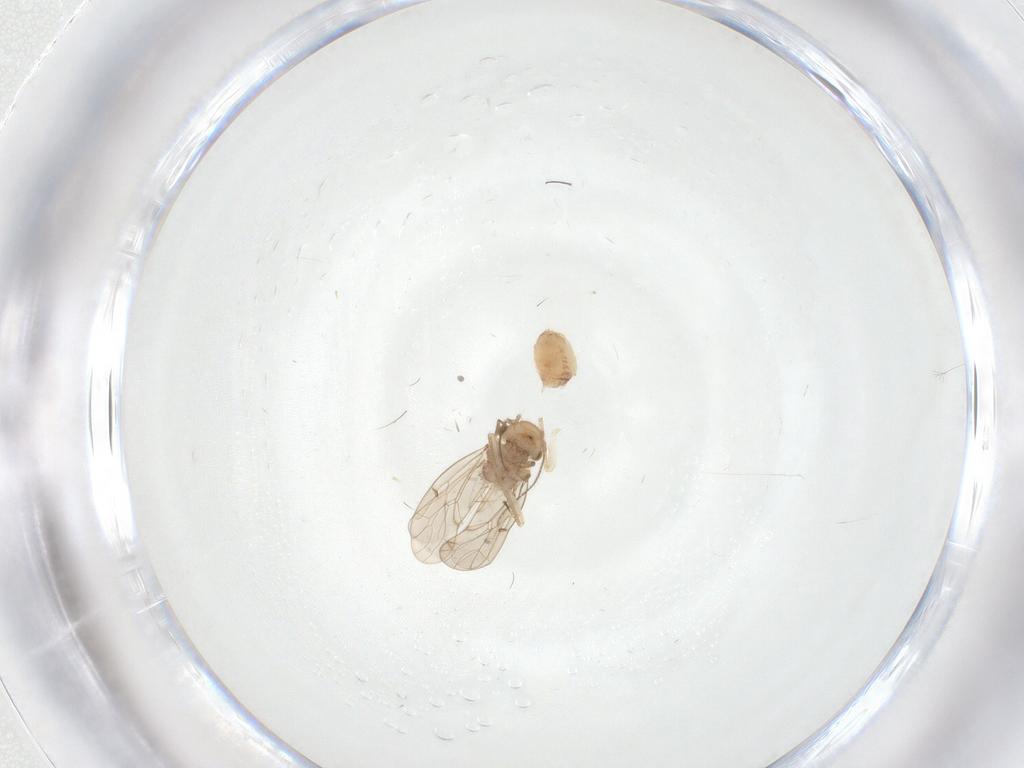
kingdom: Animalia
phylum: Arthropoda
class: Insecta
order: Psocodea
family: Ectopsocidae
